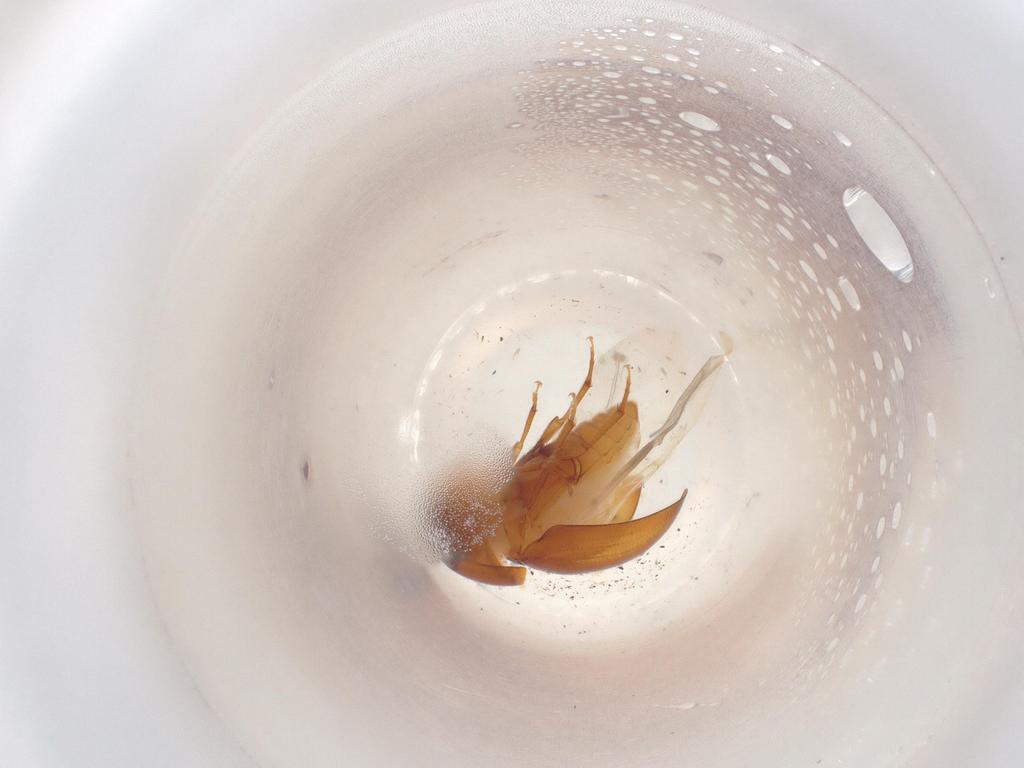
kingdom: Animalia
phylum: Arthropoda
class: Insecta
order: Coleoptera
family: Phalacridae
